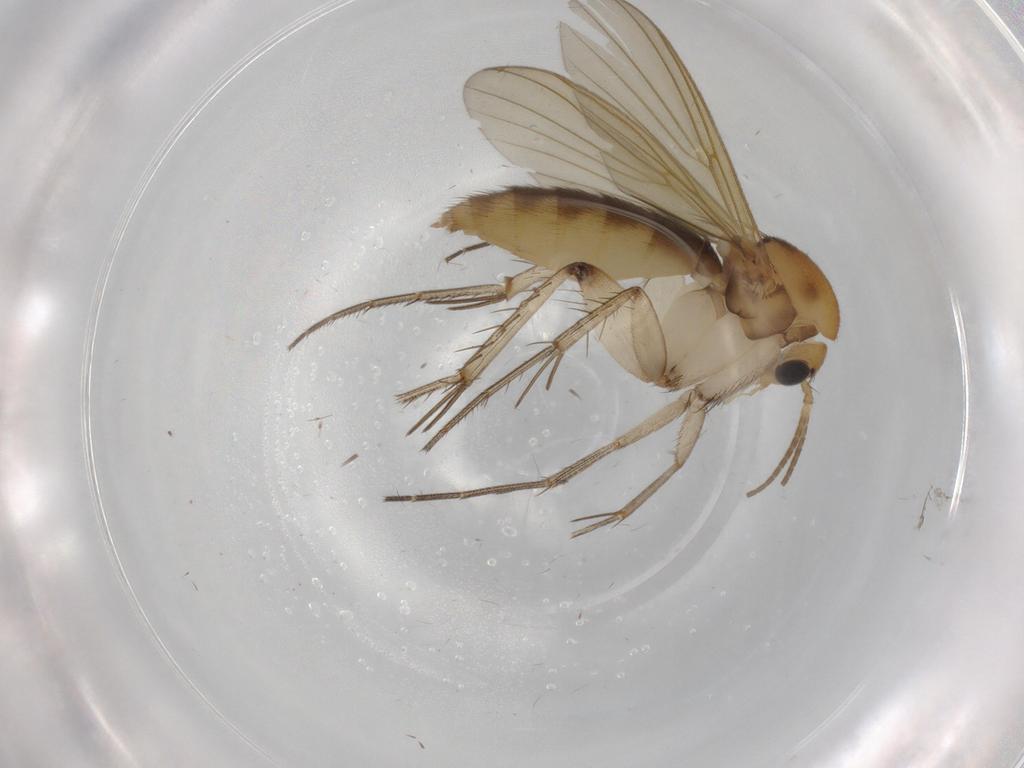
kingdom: Animalia
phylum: Arthropoda
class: Insecta
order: Diptera
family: Mycetophilidae
